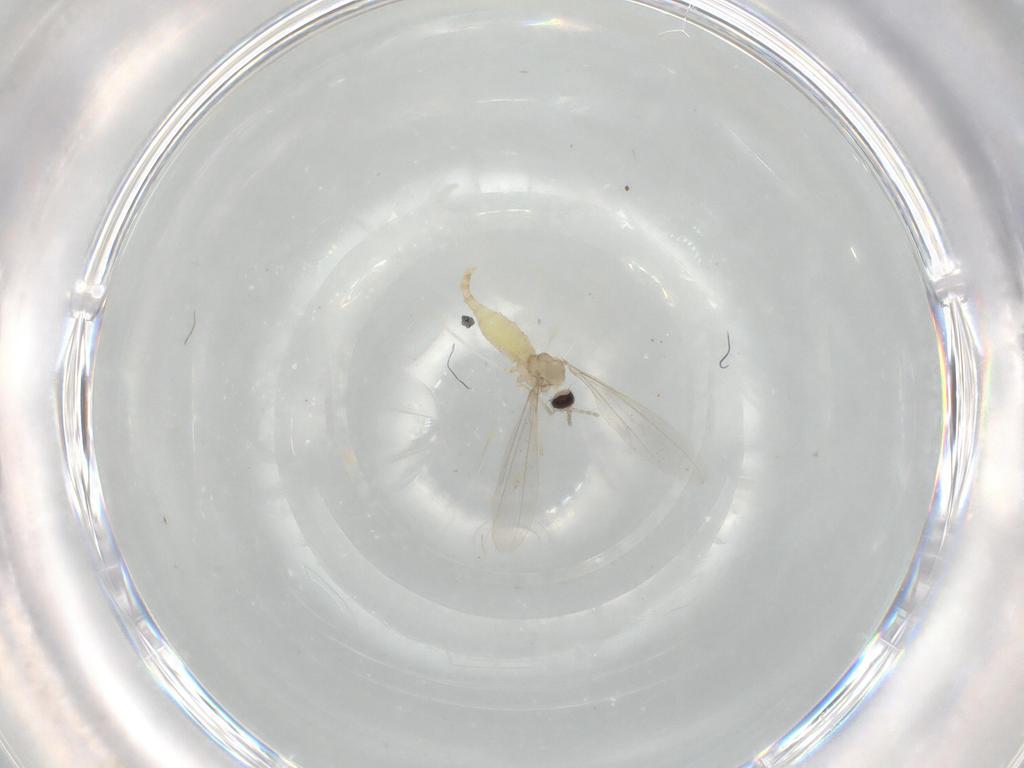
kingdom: Animalia
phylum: Arthropoda
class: Insecta
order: Diptera
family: Cecidomyiidae
